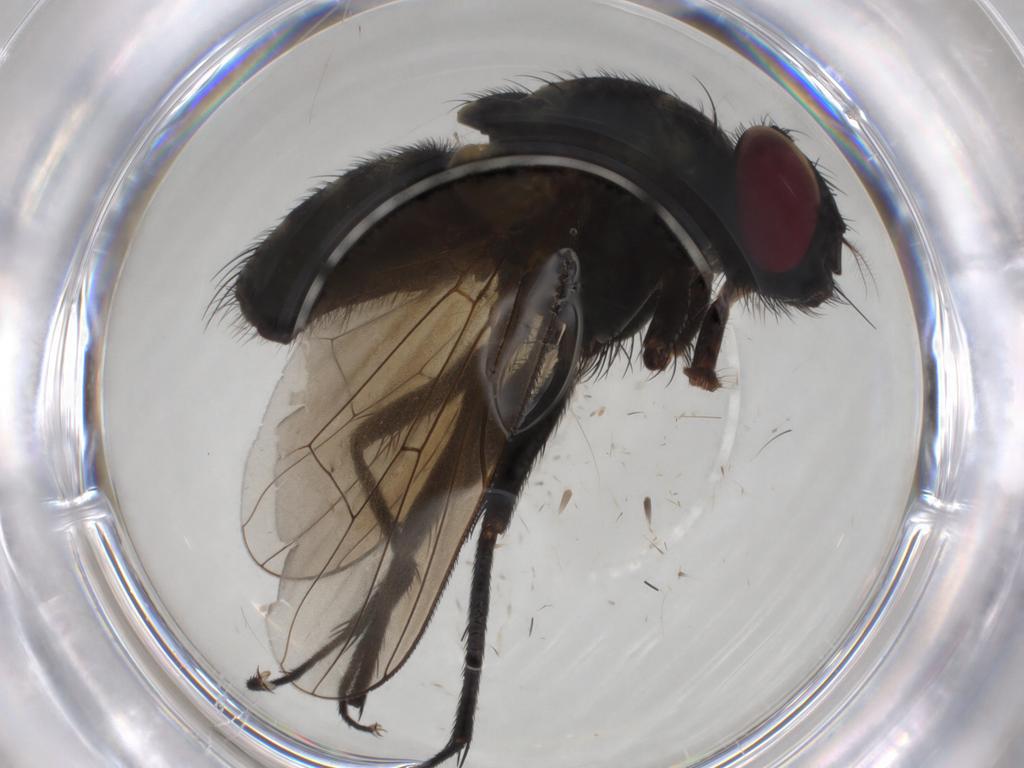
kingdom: Animalia
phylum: Arthropoda
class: Insecta
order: Diptera
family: Muscidae
